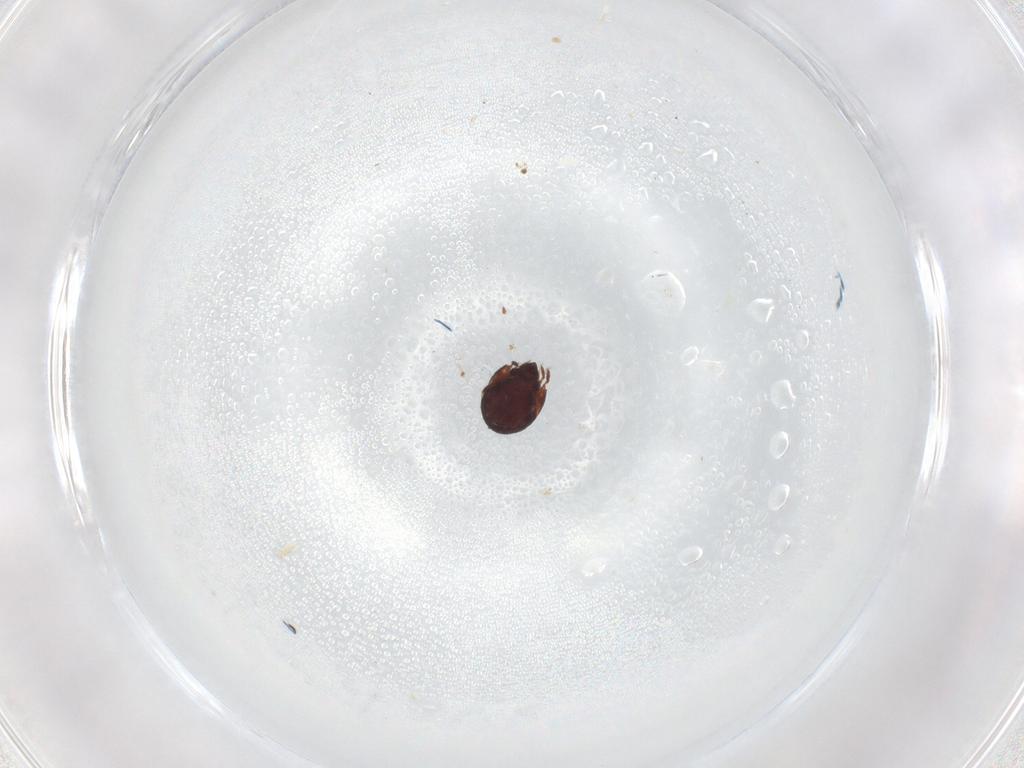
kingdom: Animalia
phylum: Arthropoda
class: Arachnida
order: Sarcoptiformes
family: Humerobatidae
